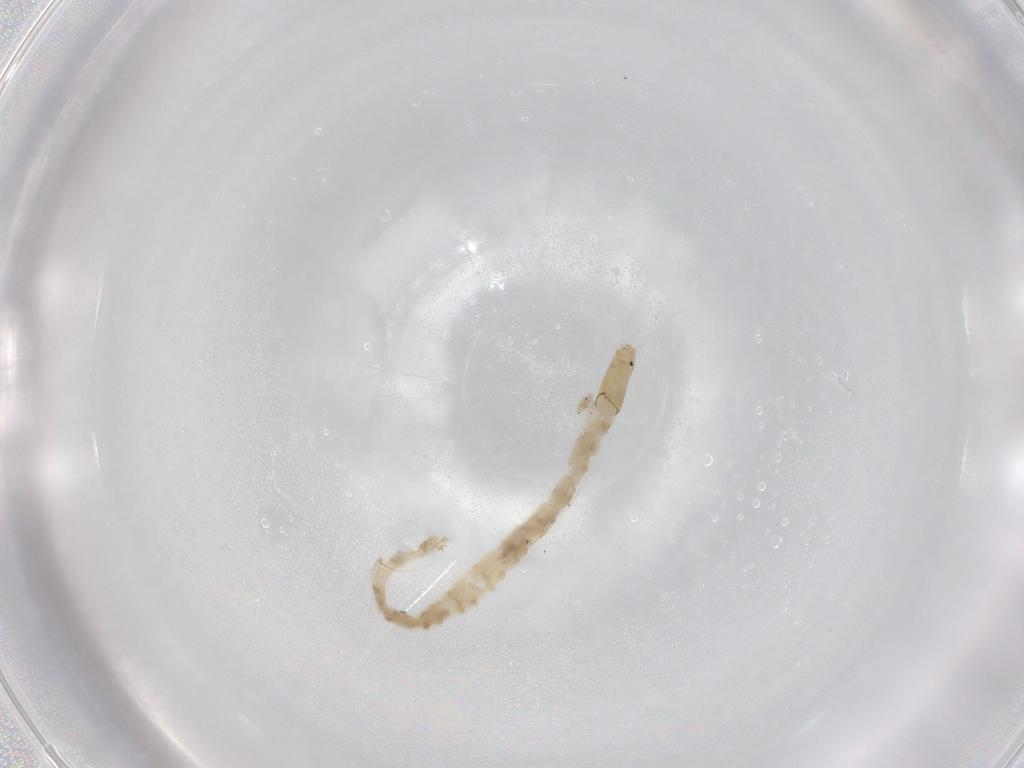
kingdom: Animalia
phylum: Arthropoda
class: Insecta
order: Diptera
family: Chironomidae
